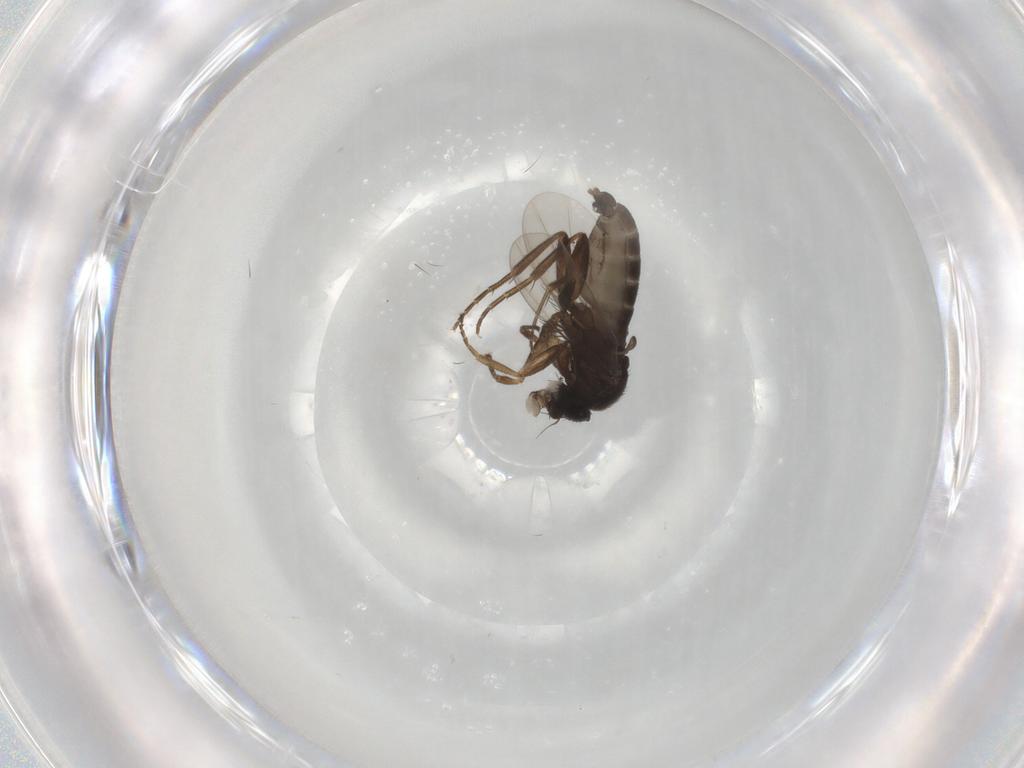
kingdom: Animalia
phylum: Arthropoda
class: Insecta
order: Diptera
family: Phoridae
